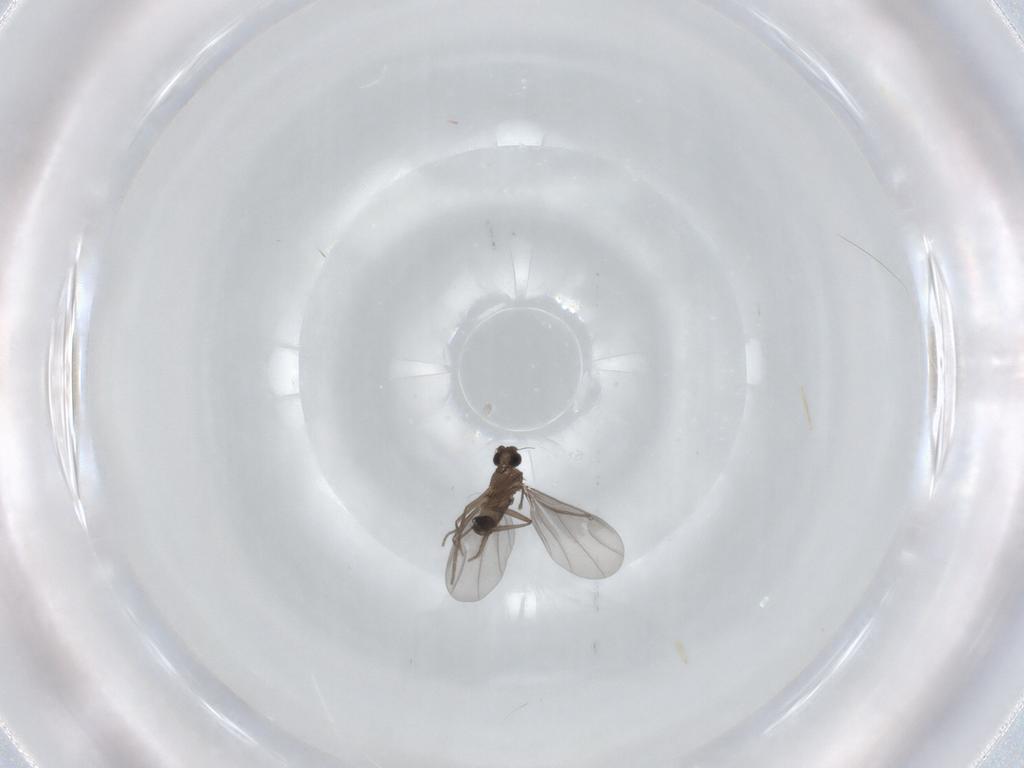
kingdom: Animalia
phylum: Arthropoda
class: Insecta
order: Diptera
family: Phoridae
